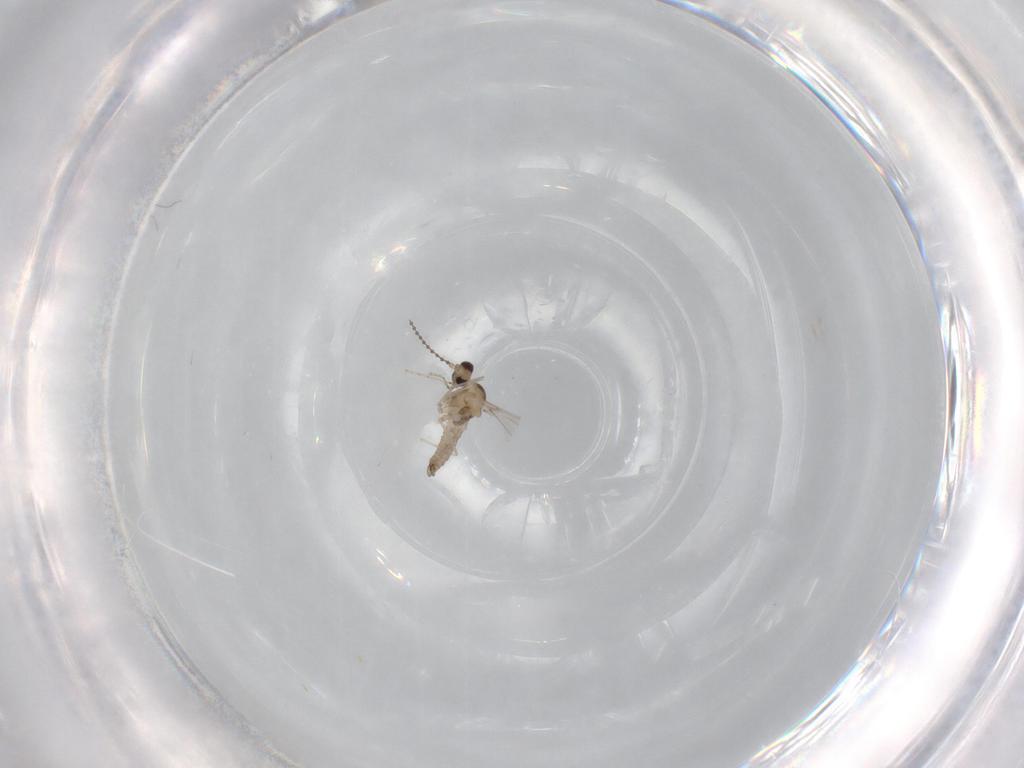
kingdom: Animalia
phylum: Arthropoda
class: Insecta
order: Diptera
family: Cecidomyiidae
